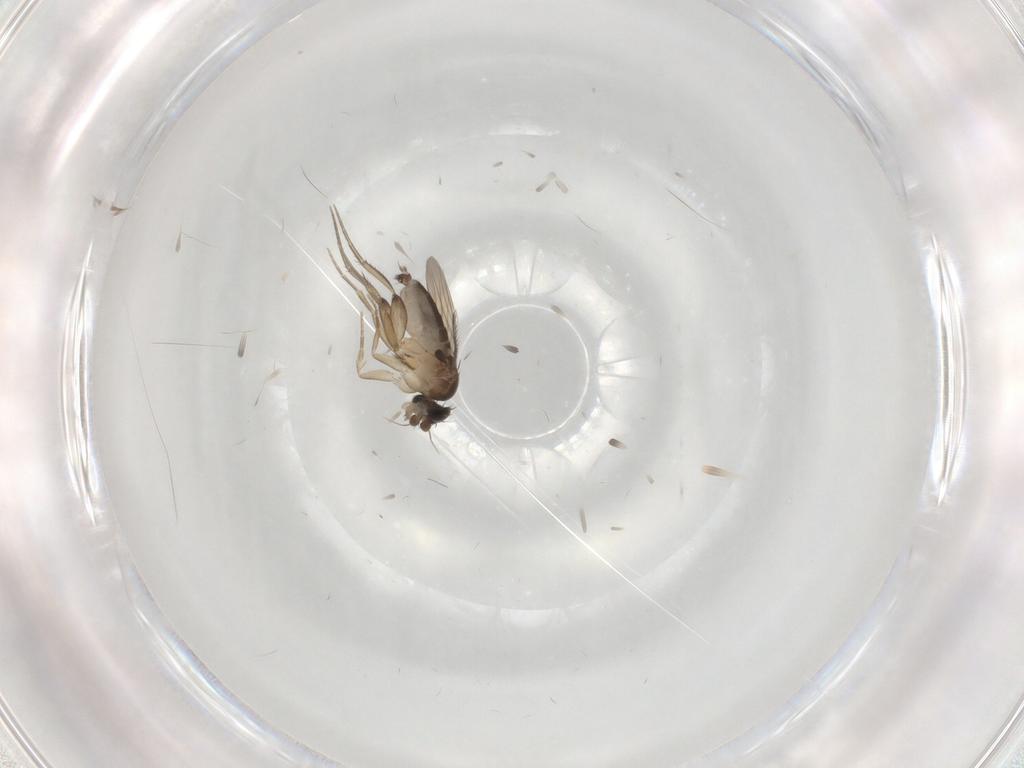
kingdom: Animalia
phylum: Arthropoda
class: Insecta
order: Diptera
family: Phoridae
